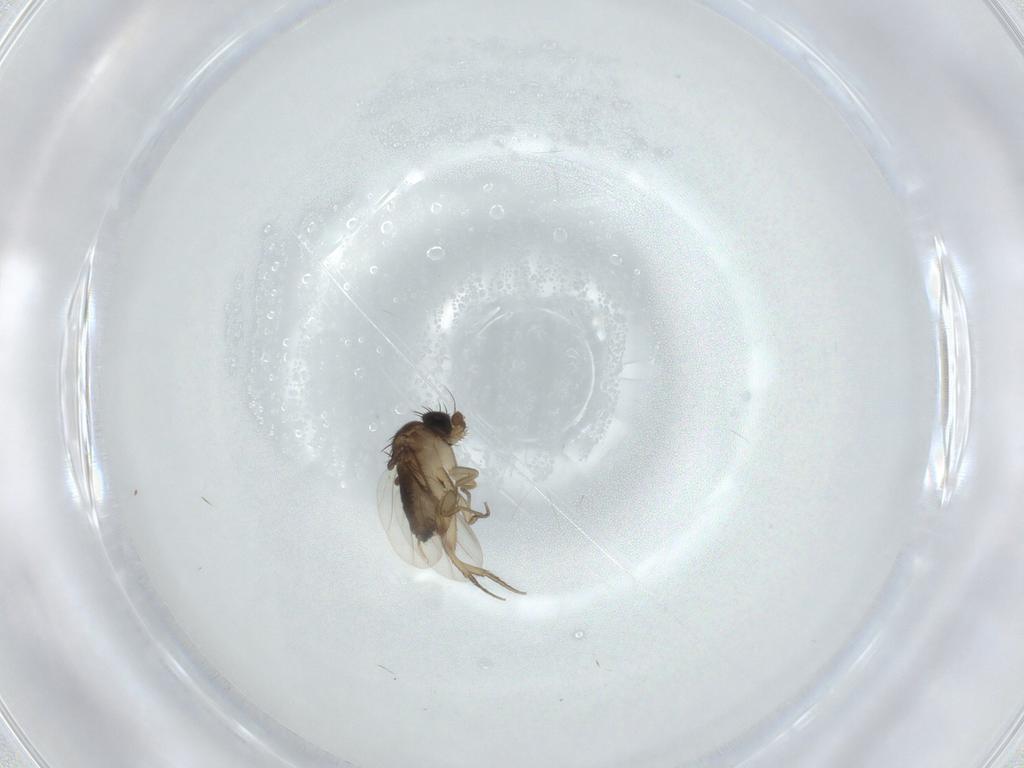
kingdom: Animalia
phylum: Arthropoda
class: Insecta
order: Diptera
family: Phoridae
